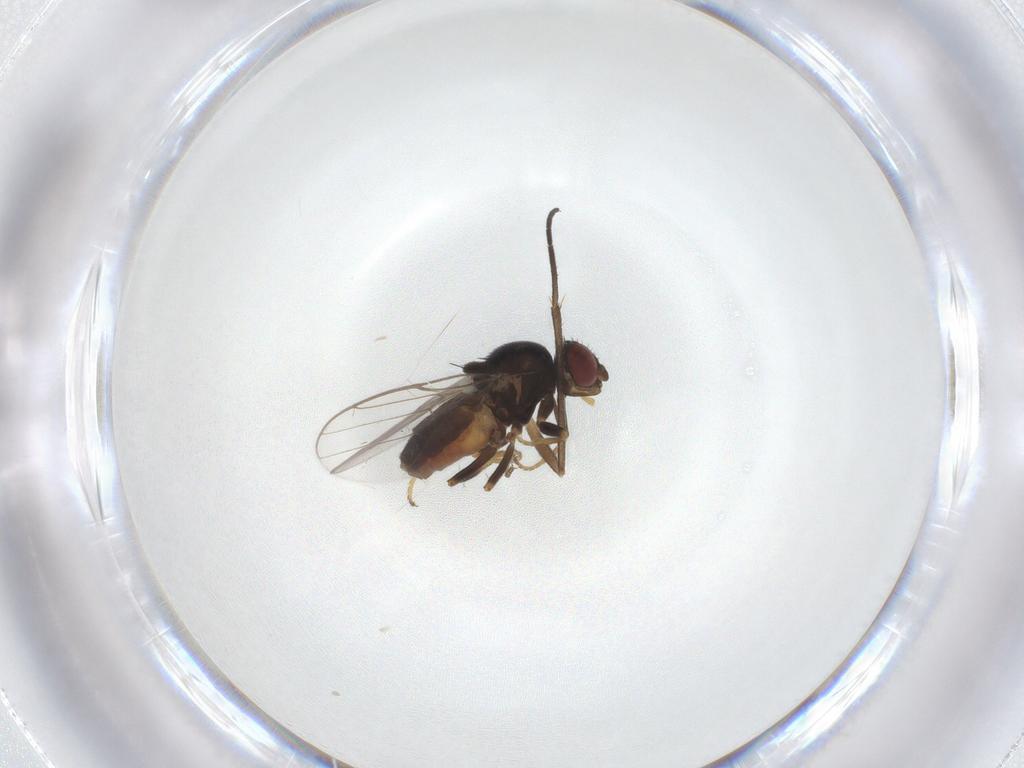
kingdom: Animalia
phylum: Arthropoda
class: Insecta
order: Diptera
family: Chloropidae
